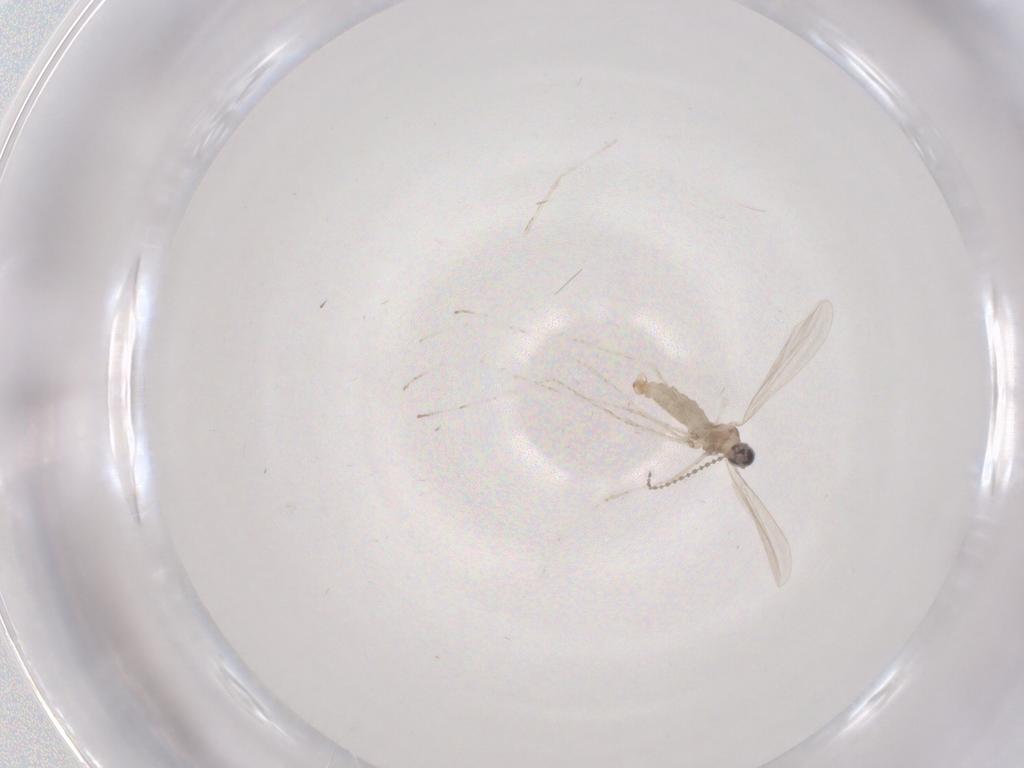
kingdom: Animalia
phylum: Arthropoda
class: Insecta
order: Diptera
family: Cecidomyiidae
